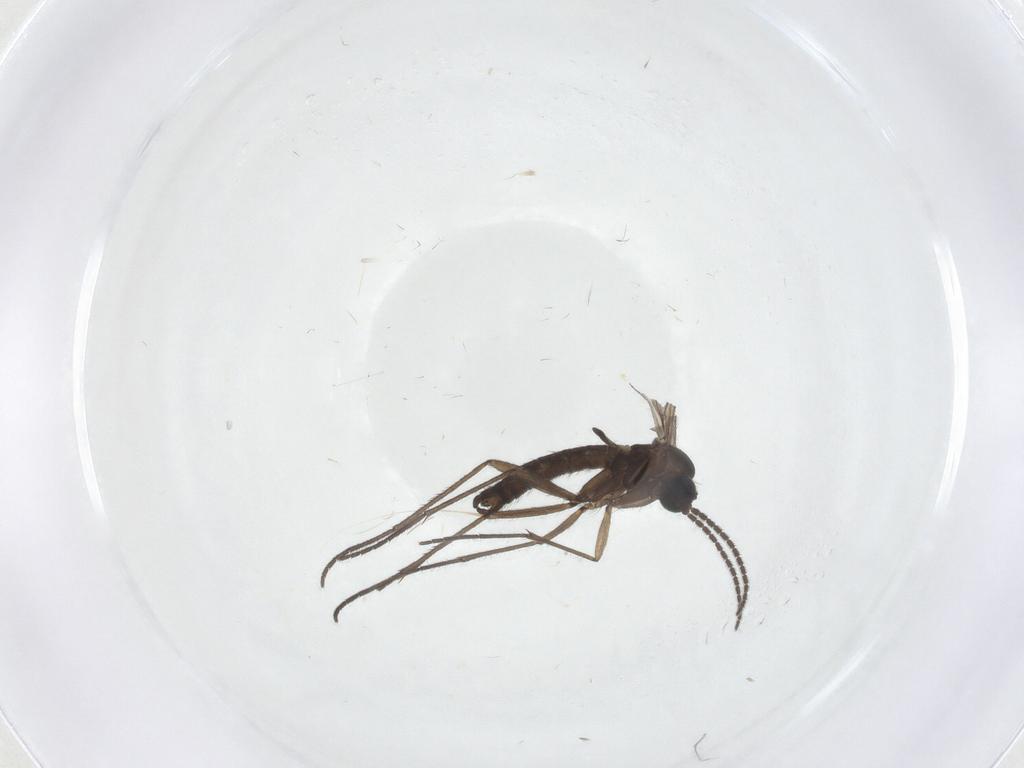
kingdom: Animalia
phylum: Arthropoda
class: Insecta
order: Diptera
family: Sciaridae
